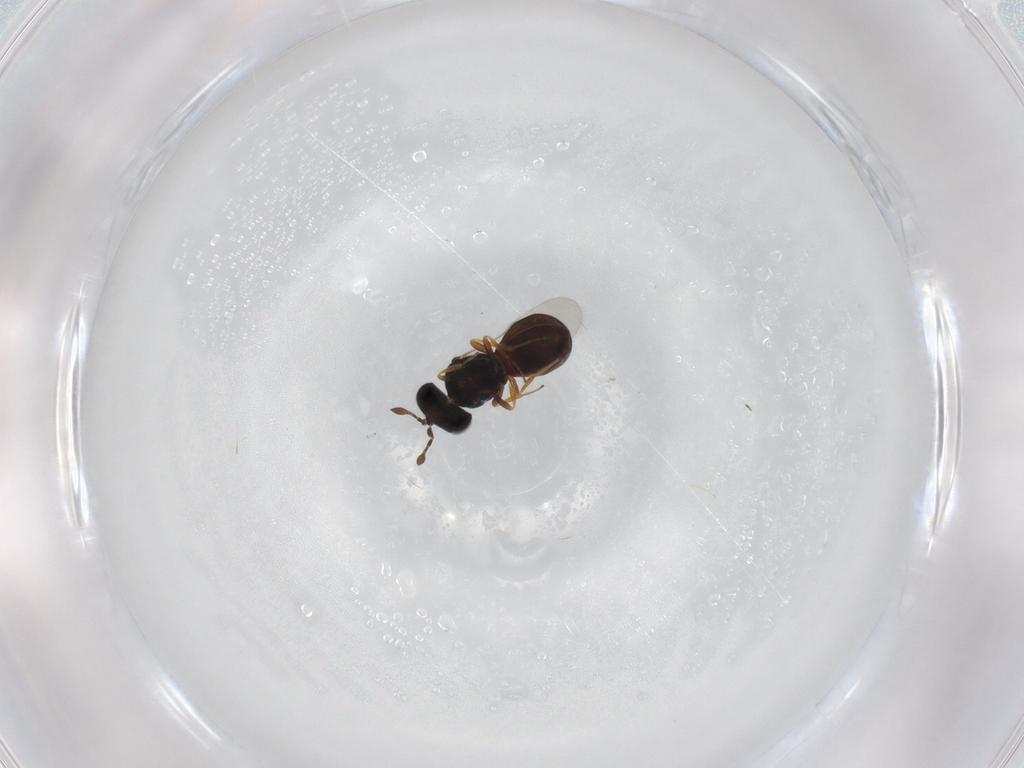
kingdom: Animalia
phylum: Arthropoda
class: Insecta
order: Hymenoptera
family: Scelionidae
